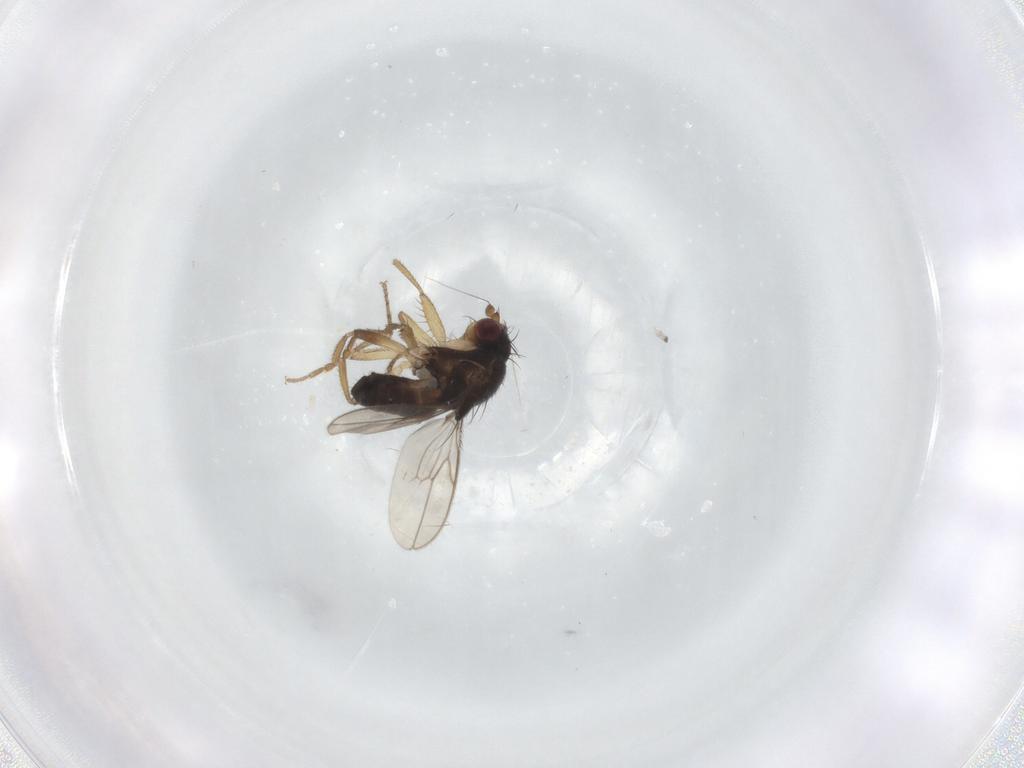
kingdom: Animalia
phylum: Arthropoda
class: Insecta
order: Diptera
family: Sphaeroceridae
